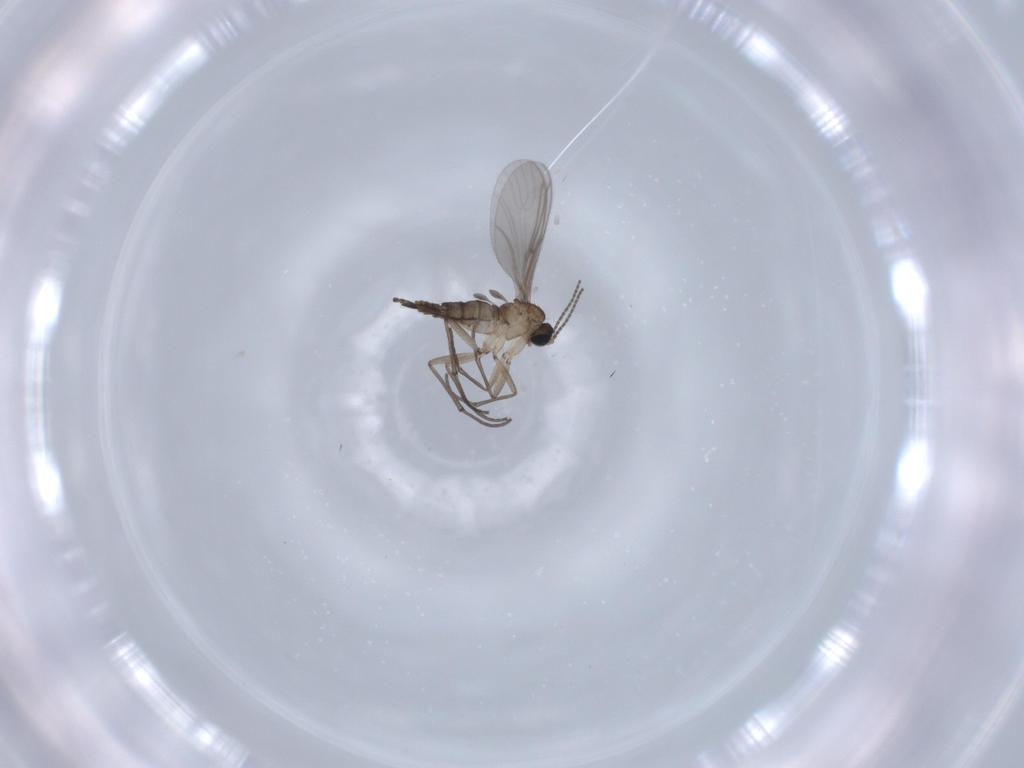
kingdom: Animalia
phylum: Arthropoda
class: Insecta
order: Diptera
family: Sciaridae
